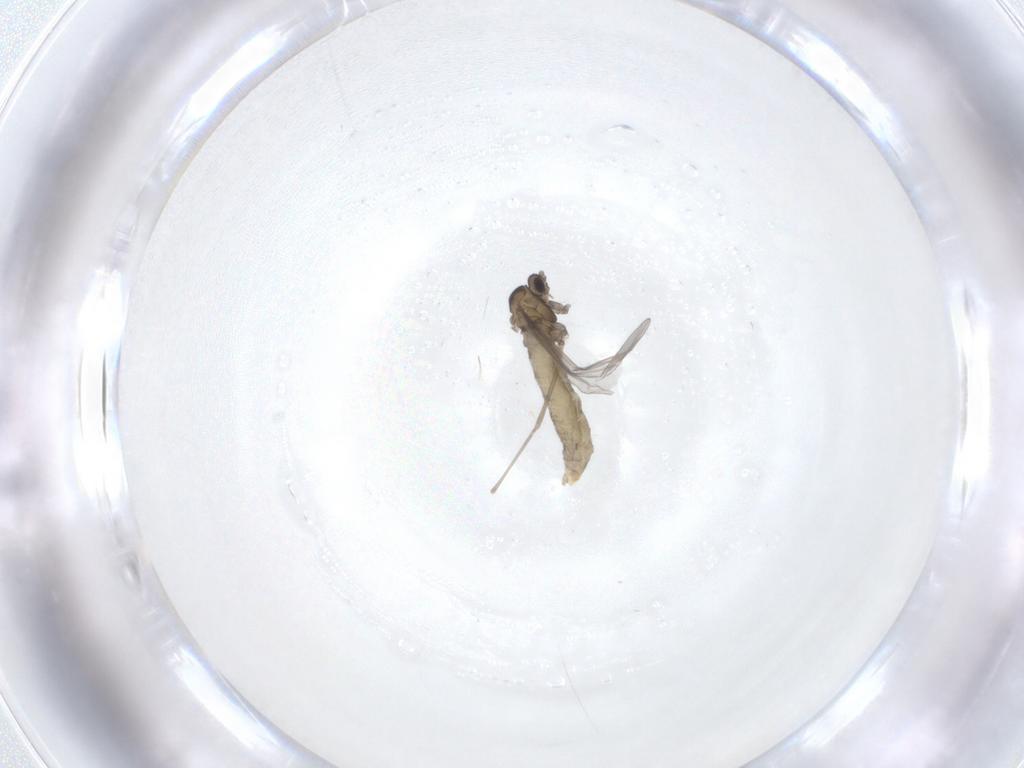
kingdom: Animalia
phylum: Arthropoda
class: Insecta
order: Diptera
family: Cecidomyiidae
